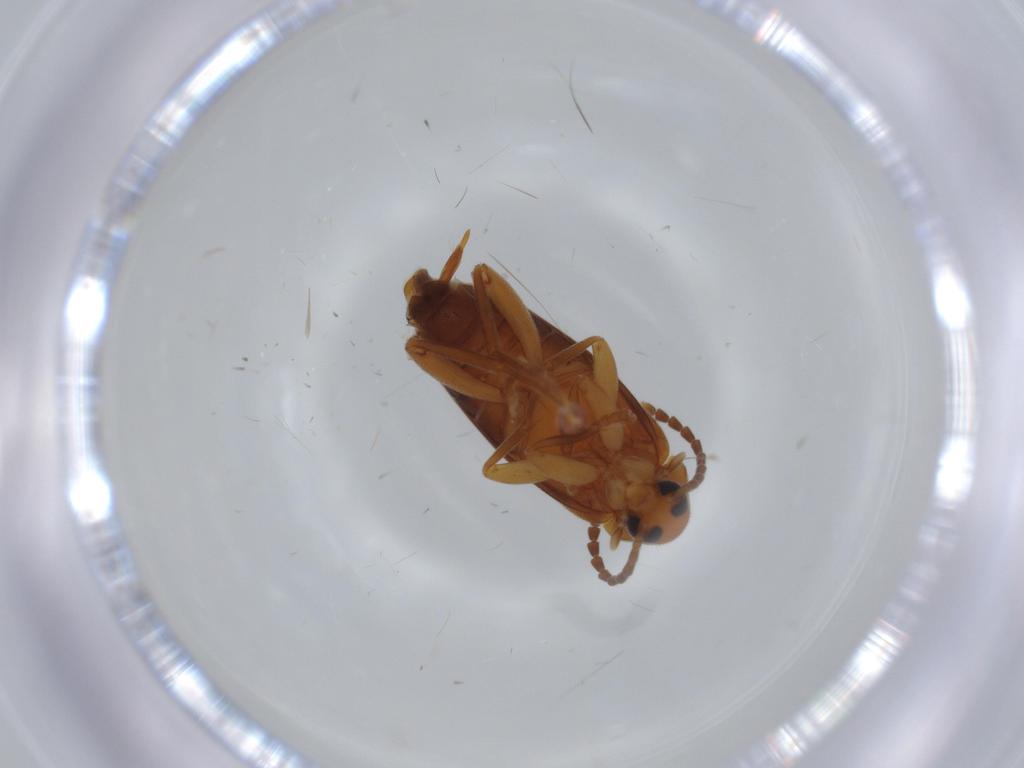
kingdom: Animalia
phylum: Arthropoda
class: Insecta
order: Coleoptera
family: Scraptiidae
